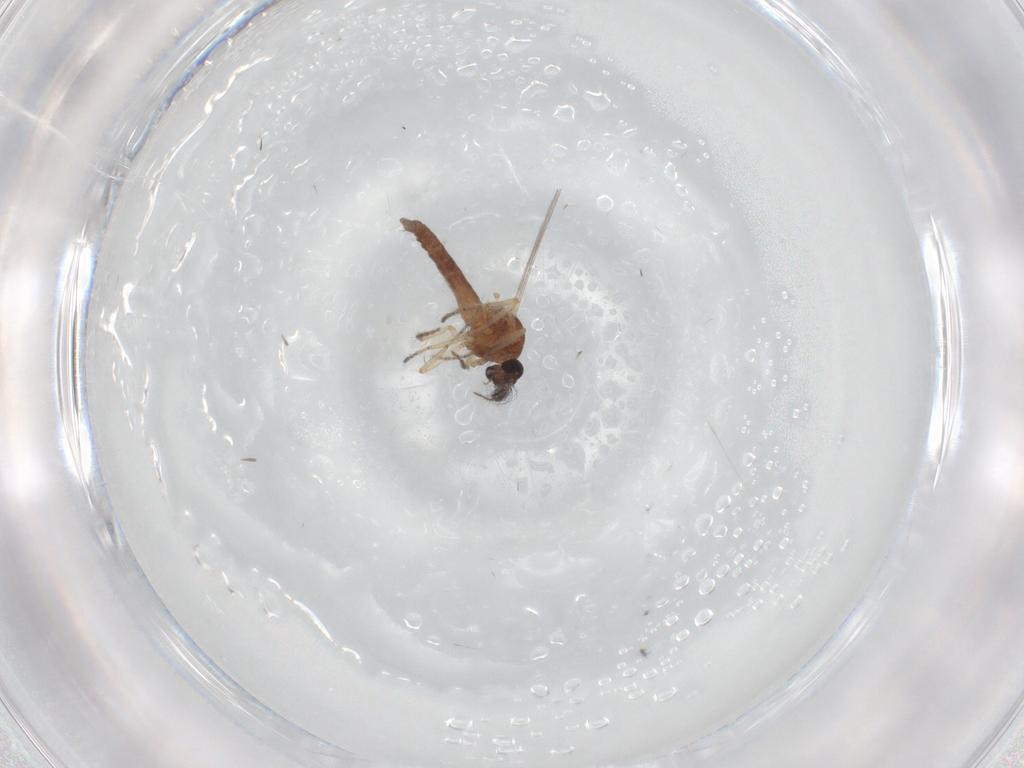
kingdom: Animalia
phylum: Arthropoda
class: Insecta
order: Diptera
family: Ceratopogonidae
